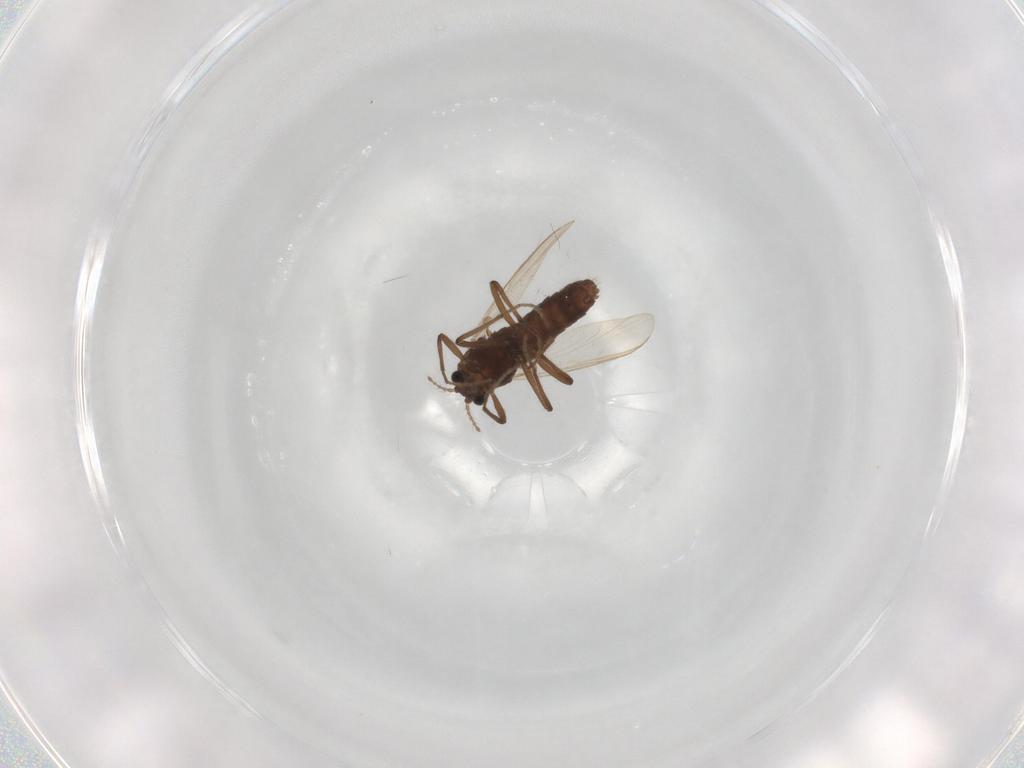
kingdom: Animalia
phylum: Arthropoda
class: Insecta
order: Diptera
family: Chironomidae
